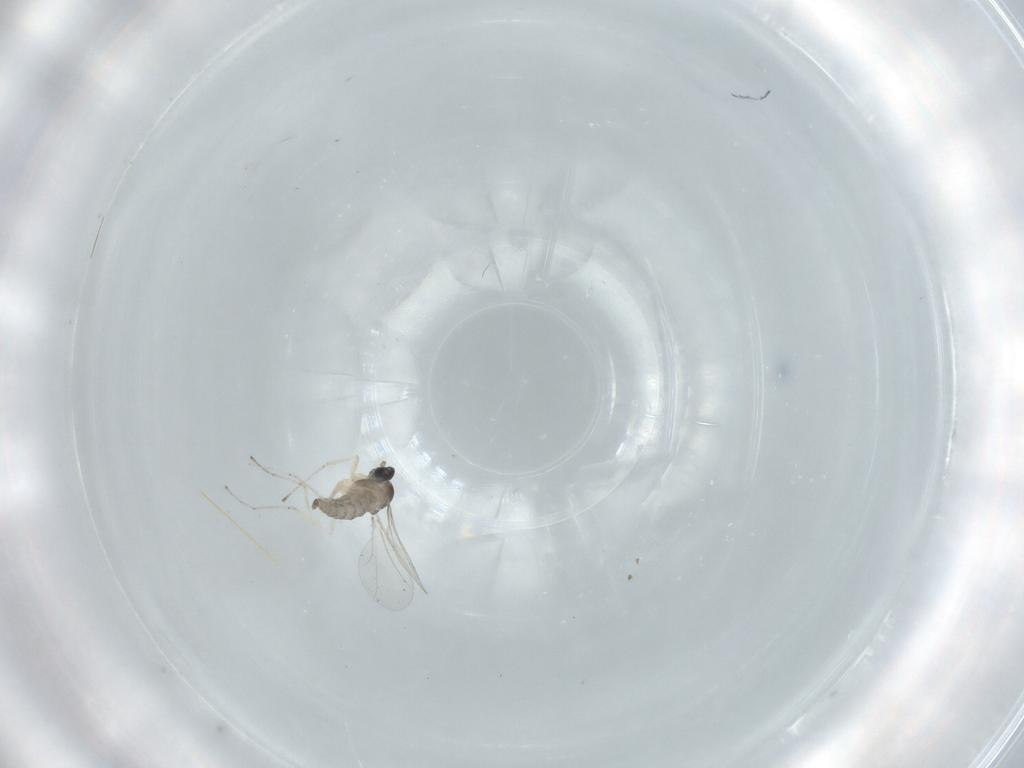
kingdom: Animalia
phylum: Arthropoda
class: Insecta
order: Diptera
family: Cecidomyiidae
